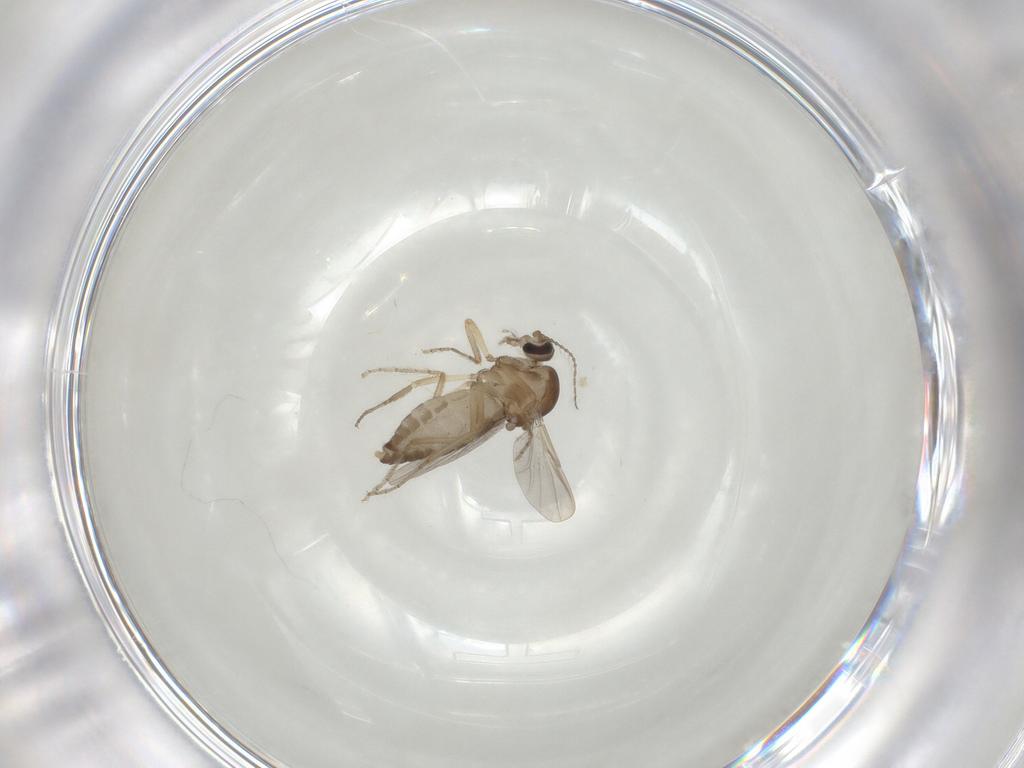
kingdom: Animalia
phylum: Arthropoda
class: Insecta
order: Diptera
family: Ceratopogonidae
